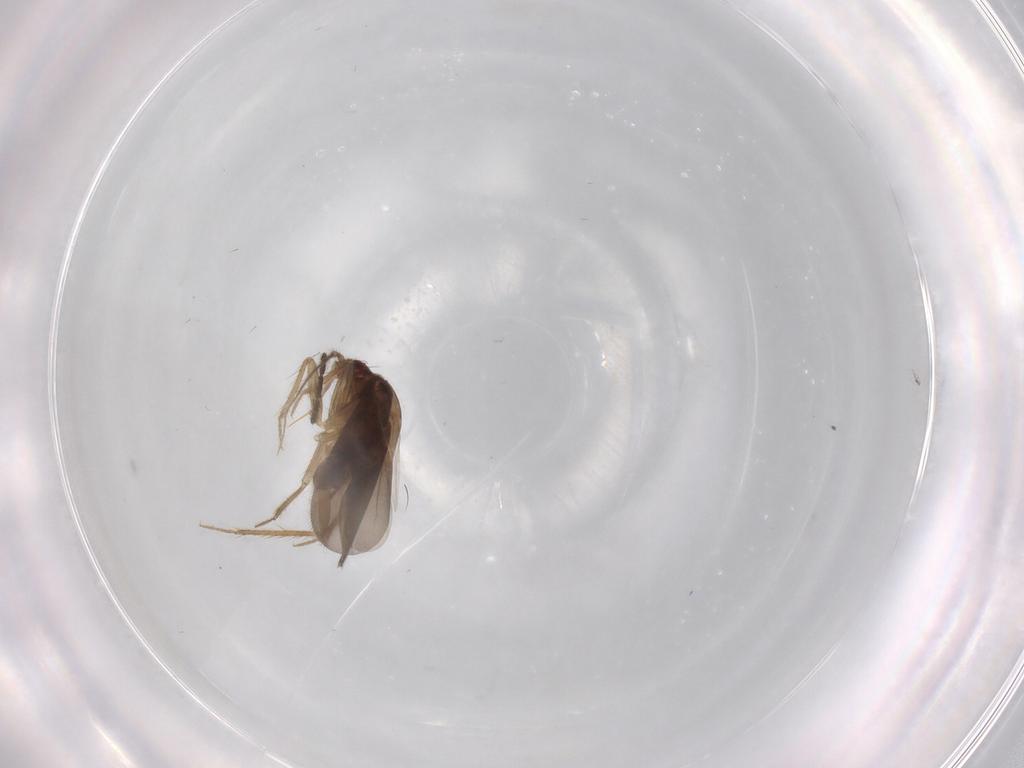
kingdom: Animalia
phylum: Arthropoda
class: Insecta
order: Hemiptera
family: Miridae
